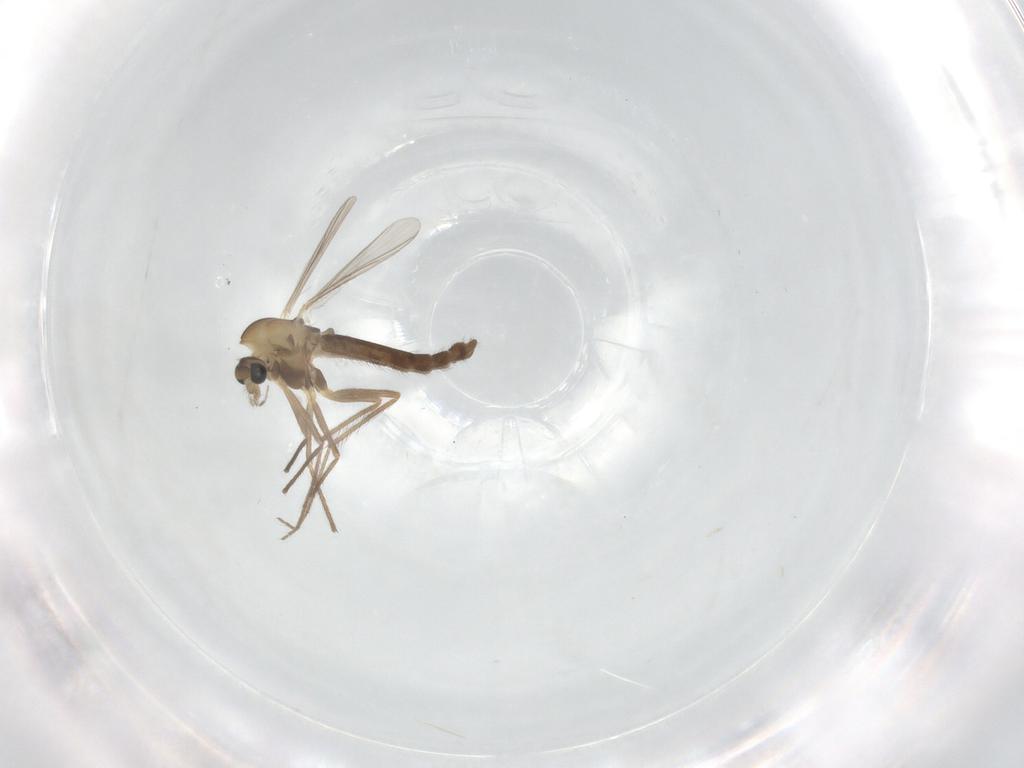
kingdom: Animalia
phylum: Arthropoda
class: Insecta
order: Diptera
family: Chironomidae
